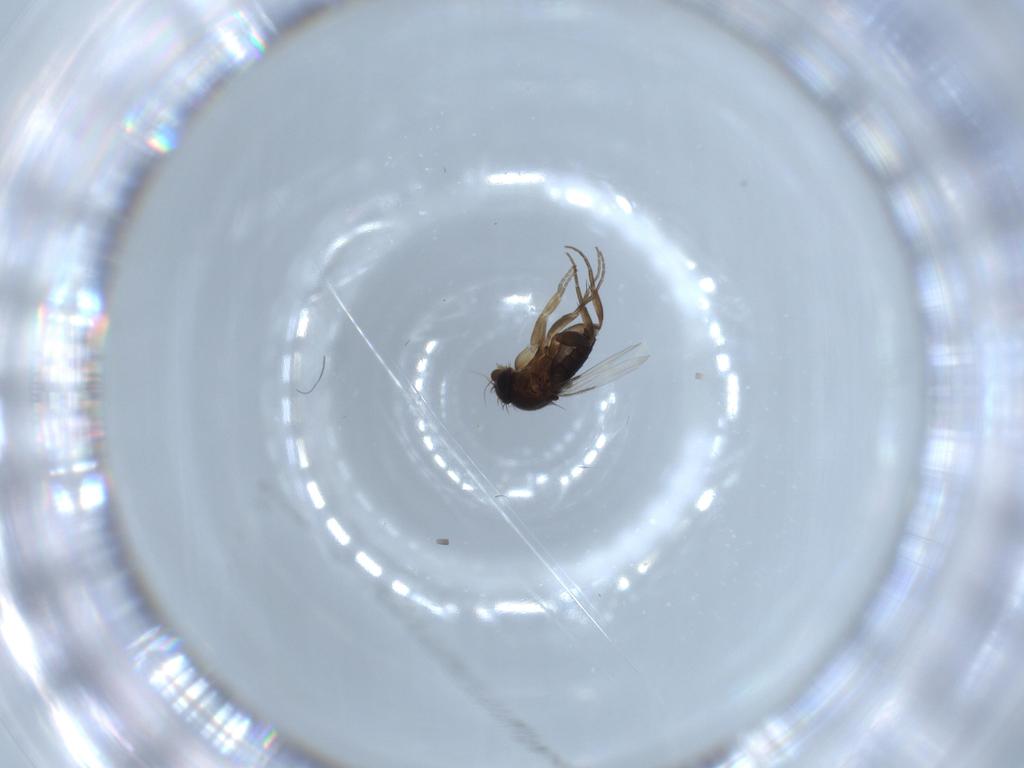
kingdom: Animalia
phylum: Arthropoda
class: Insecta
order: Diptera
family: Phoridae
